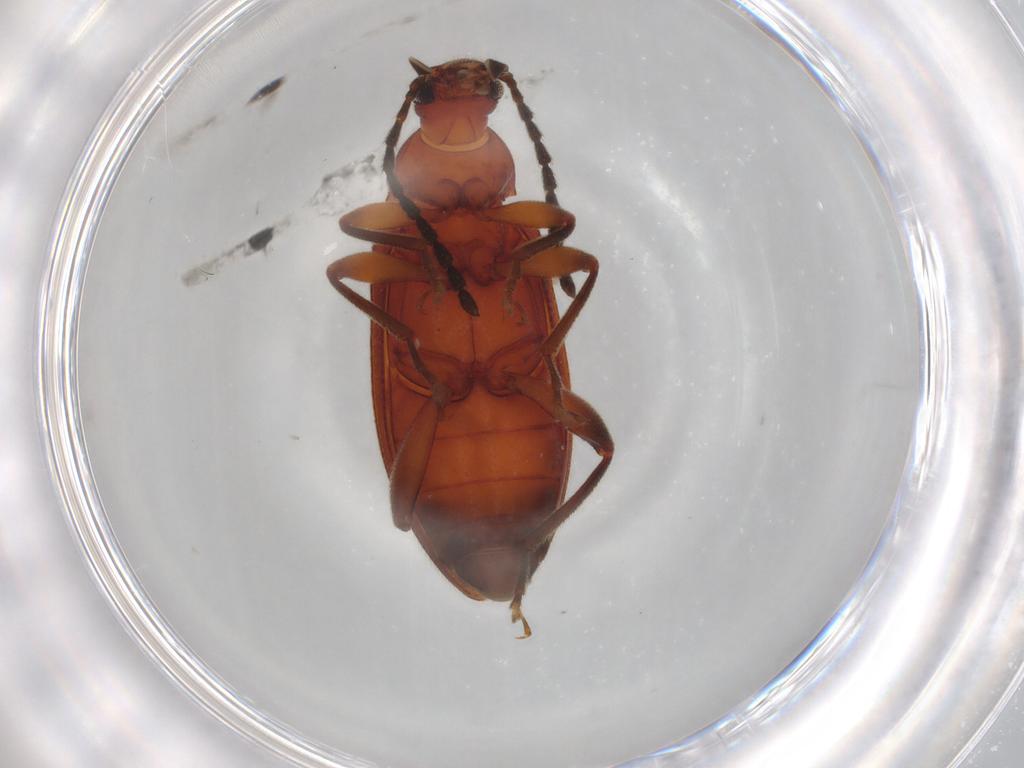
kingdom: Animalia
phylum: Arthropoda
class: Insecta
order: Coleoptera
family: Tenebrionidae
